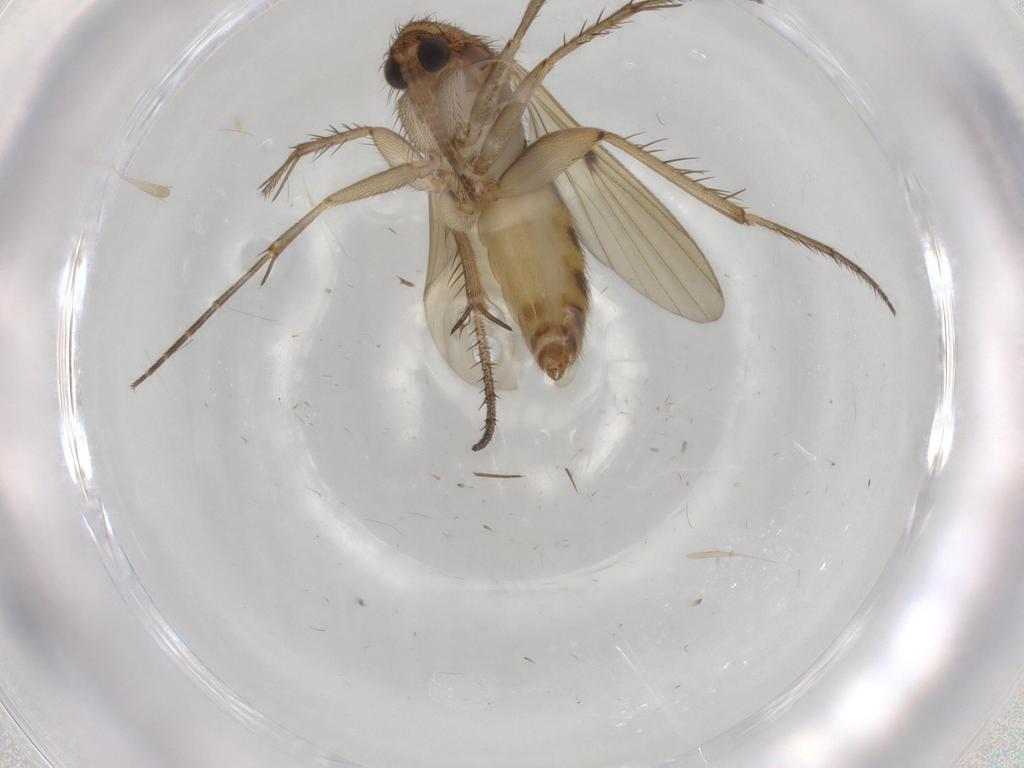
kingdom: Animalia
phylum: Arthropoda
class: Insecta
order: Diptera
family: Sphaeroceridae
